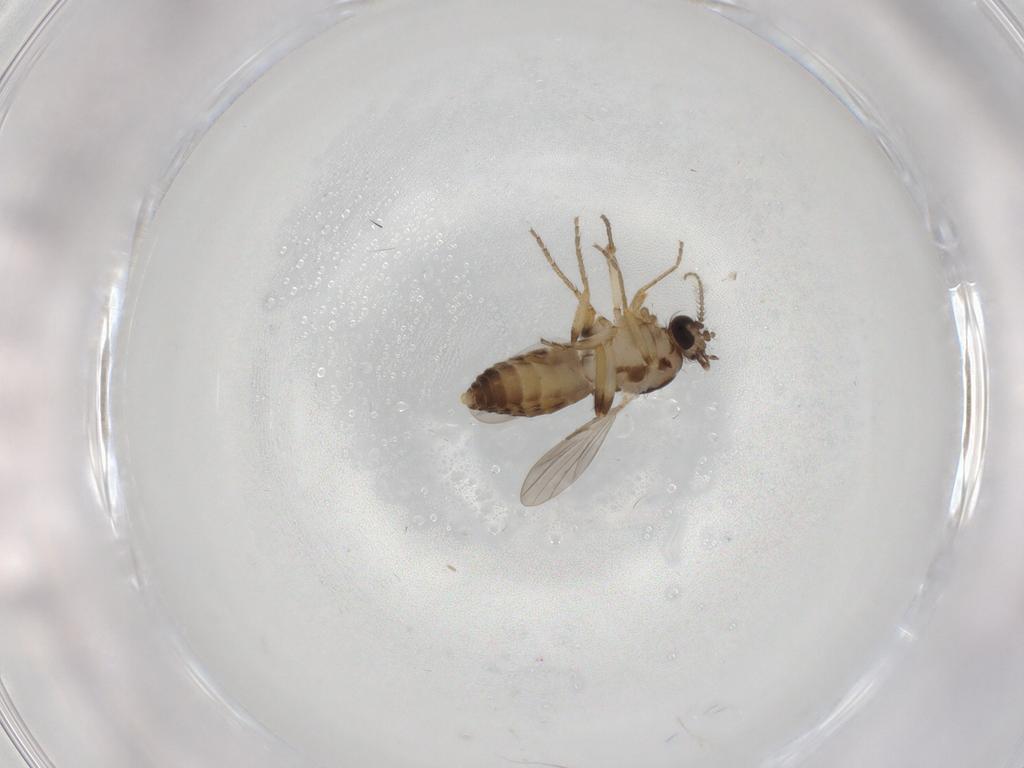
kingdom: Animalia
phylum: Arthropoda
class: Insecta
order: Diptera
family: Ceratopogonidae
